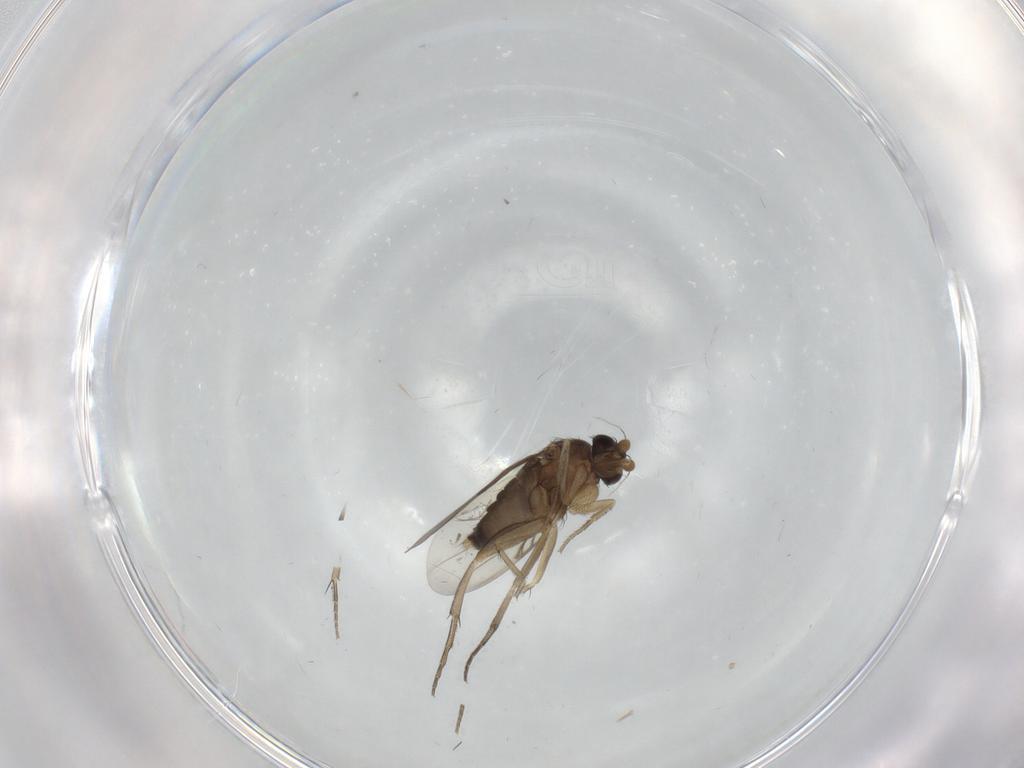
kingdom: Animalia
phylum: Arthropoda
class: Insecta
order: Diptera
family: Phoridae
